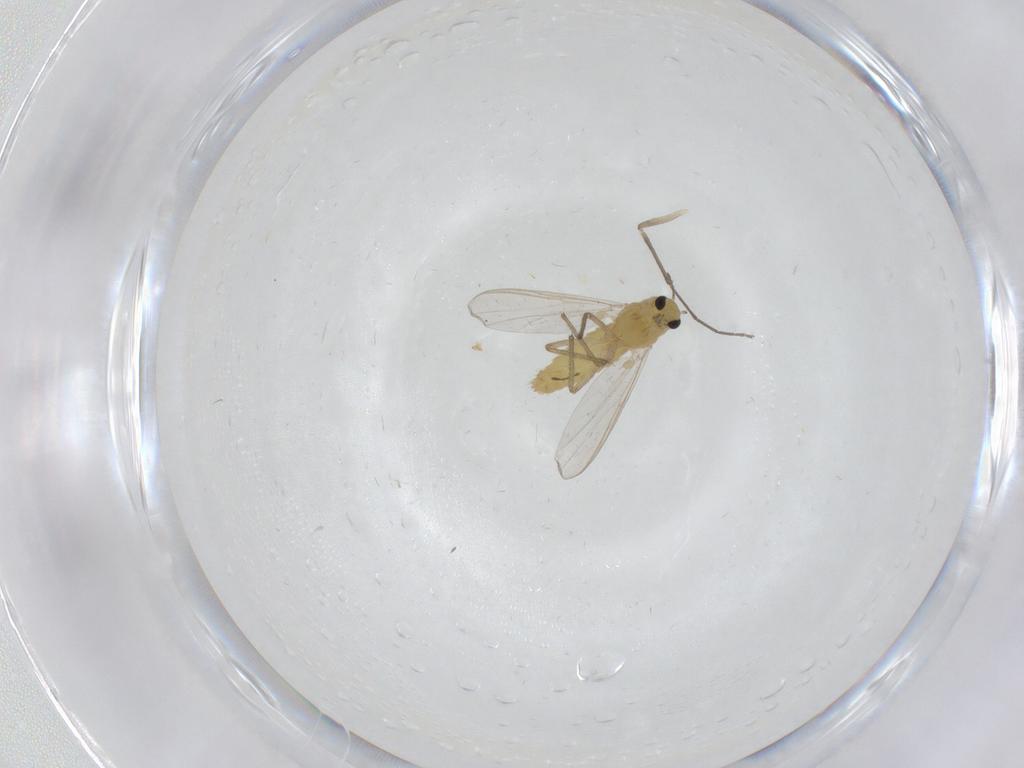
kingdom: Animalia
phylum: Arthropoda
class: Insecta
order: Diptera
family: Chironomidae
